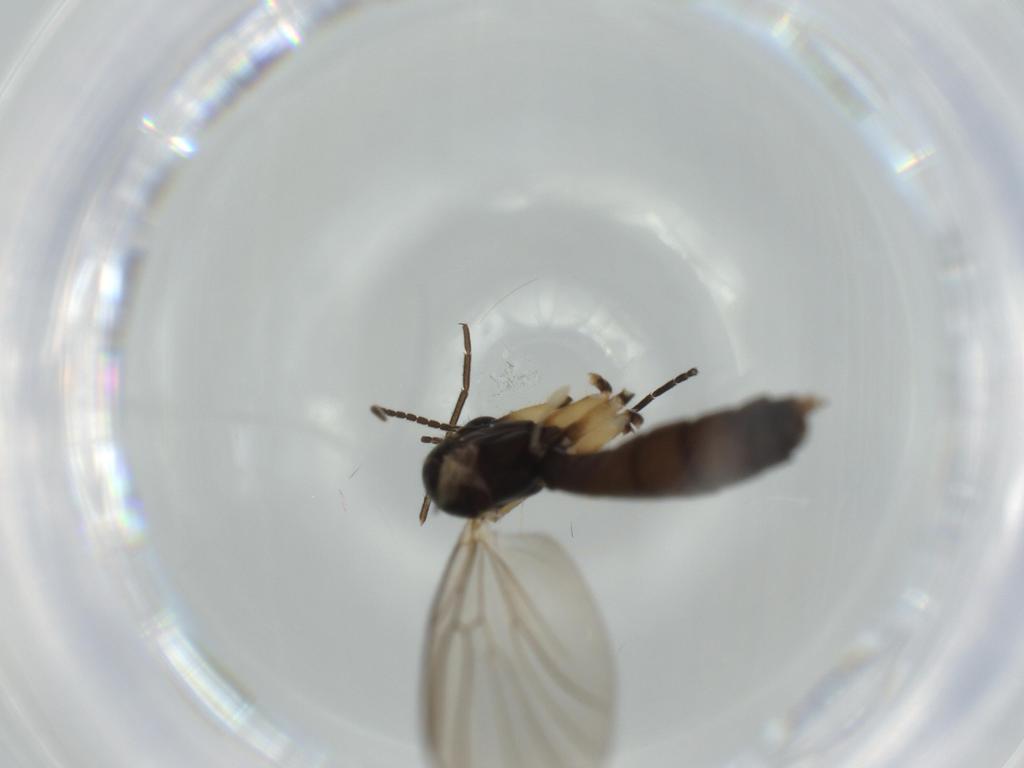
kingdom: Animalia
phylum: Arthropoda
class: Insecta
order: Diptera
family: Mycetophilidae
